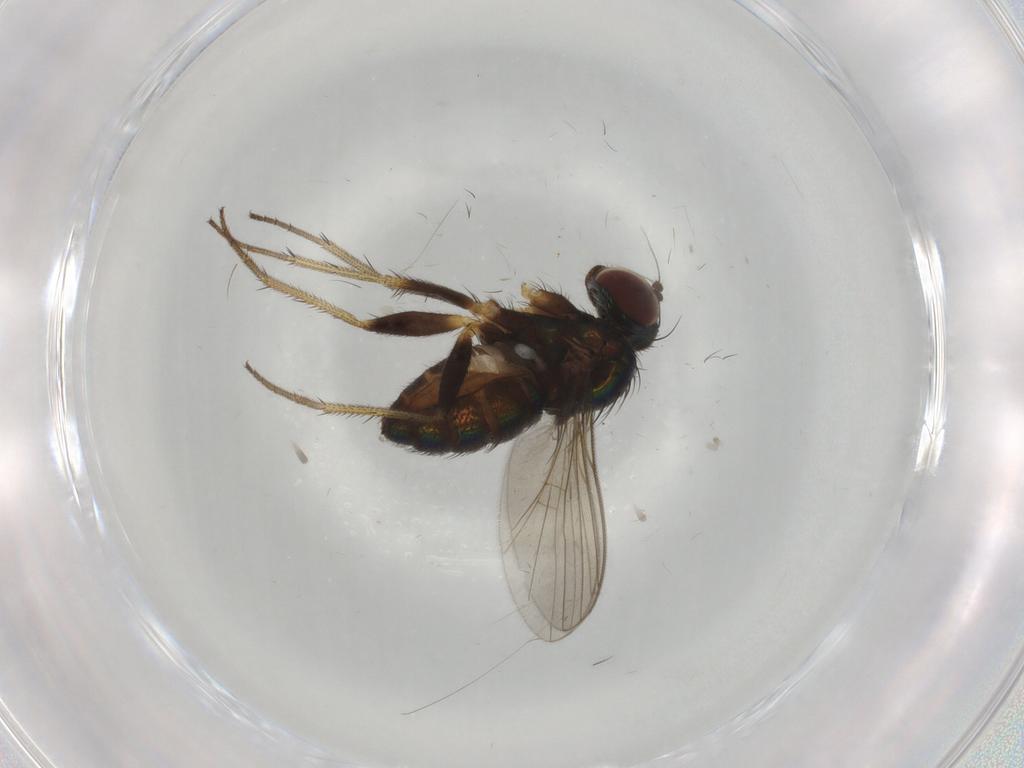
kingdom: Animalia
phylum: Arthropoda
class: Insecta
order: Diptera
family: Dolichopodidae
